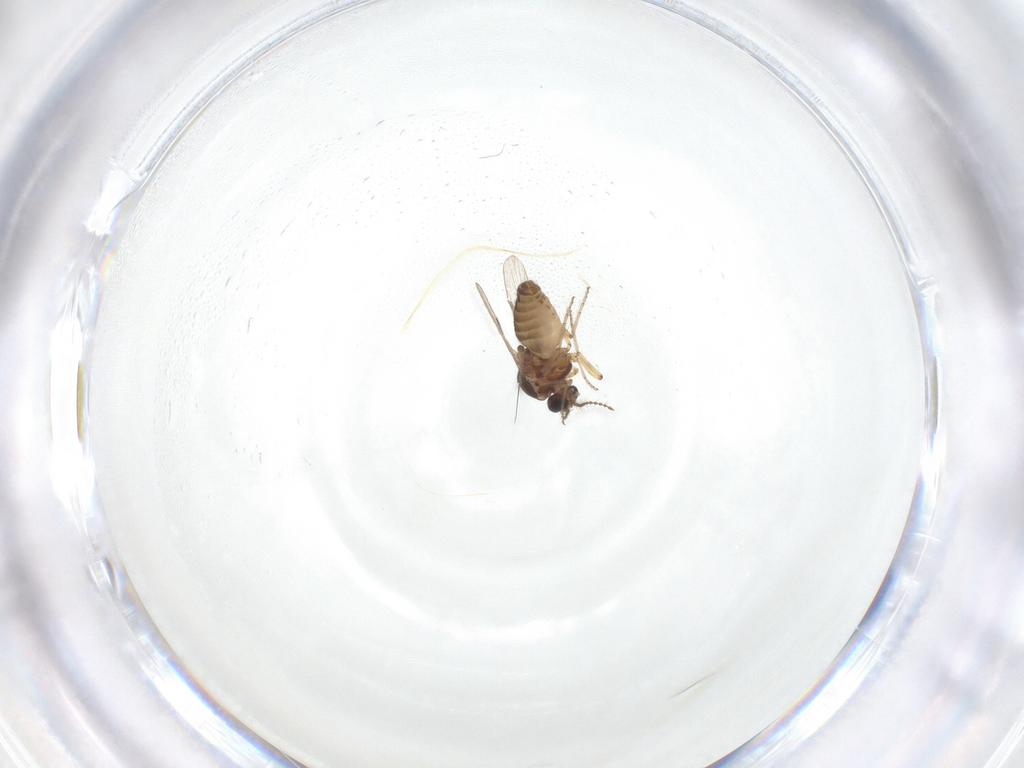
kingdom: Animalia
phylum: Arthropoda
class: Insecta
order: Diptera
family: Ceratopogonidae
